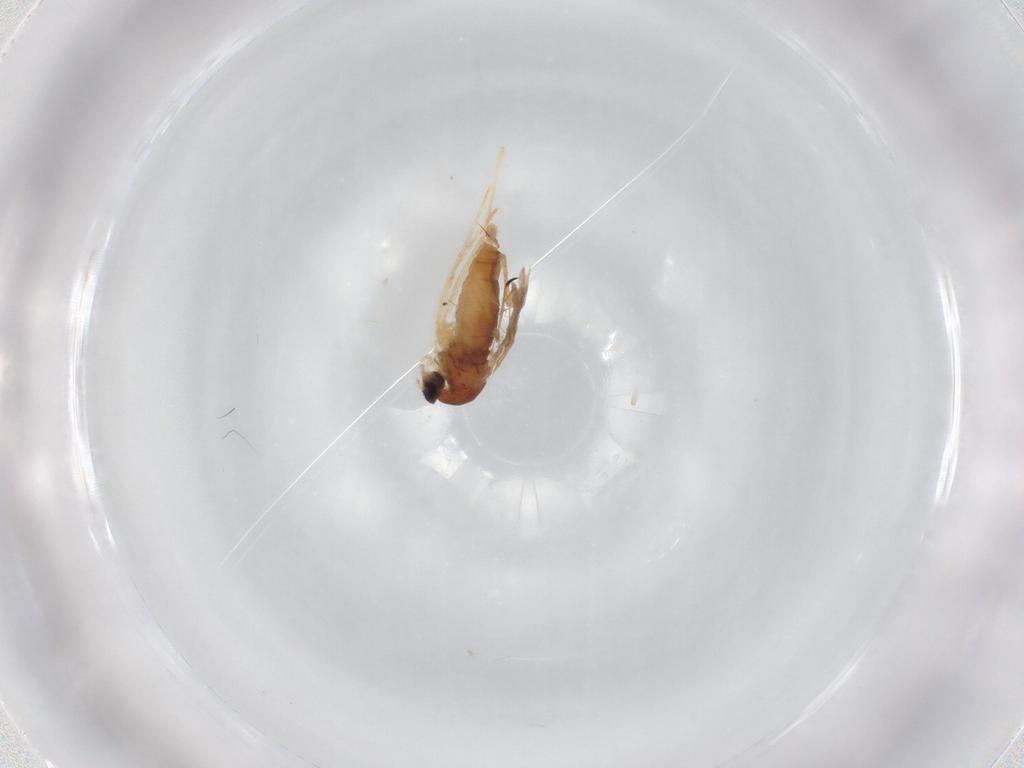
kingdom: Animalia
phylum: Arthropoda
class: Insecta
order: Diptera
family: Cecidomyiidae
